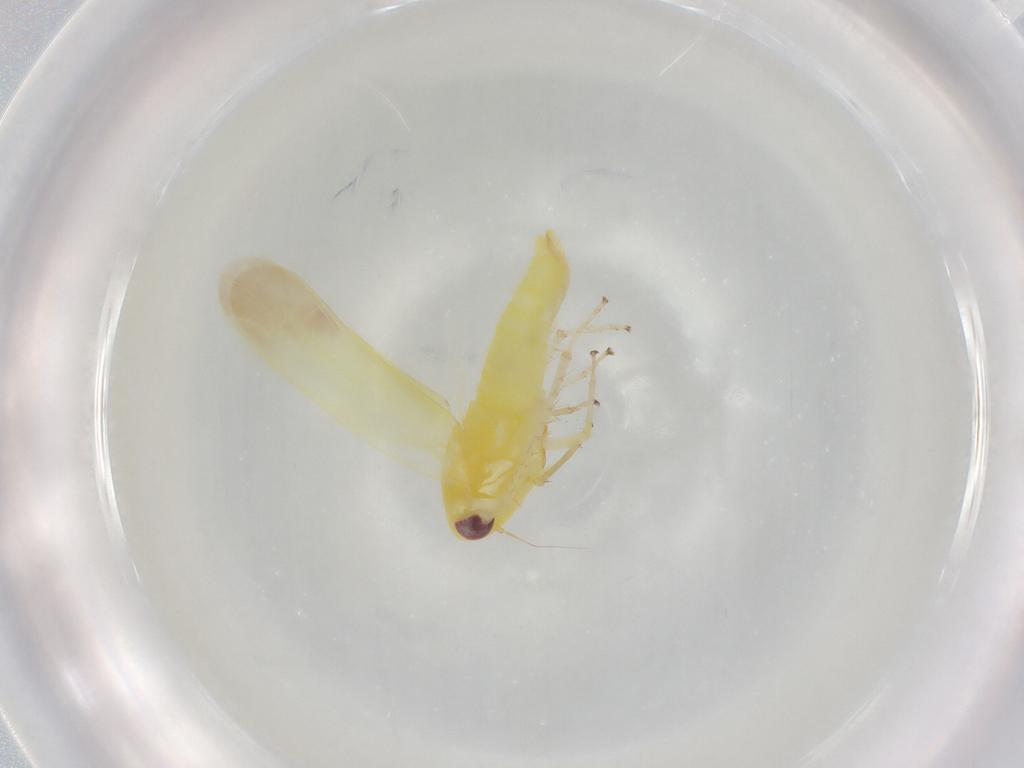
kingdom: Animalia
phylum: Arthropoda
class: Insecta
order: Hemiptera
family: Cicadellidae
